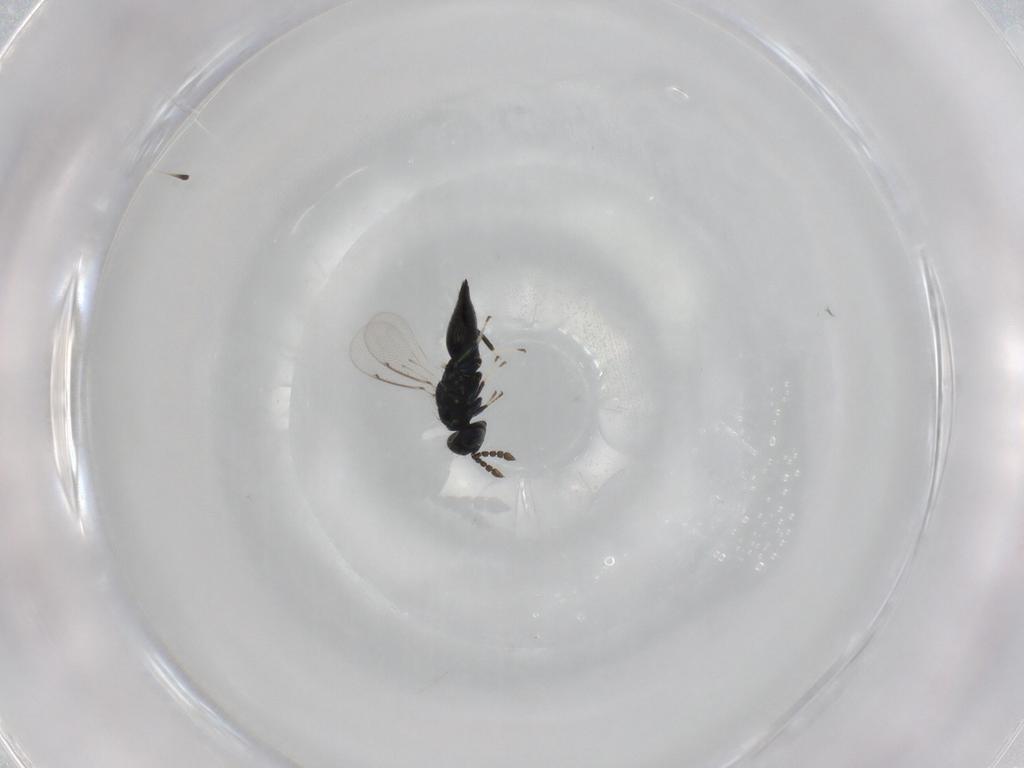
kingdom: Animalia
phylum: Arthropoda
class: Insecta
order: Hymenoptera
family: Eulophidae
